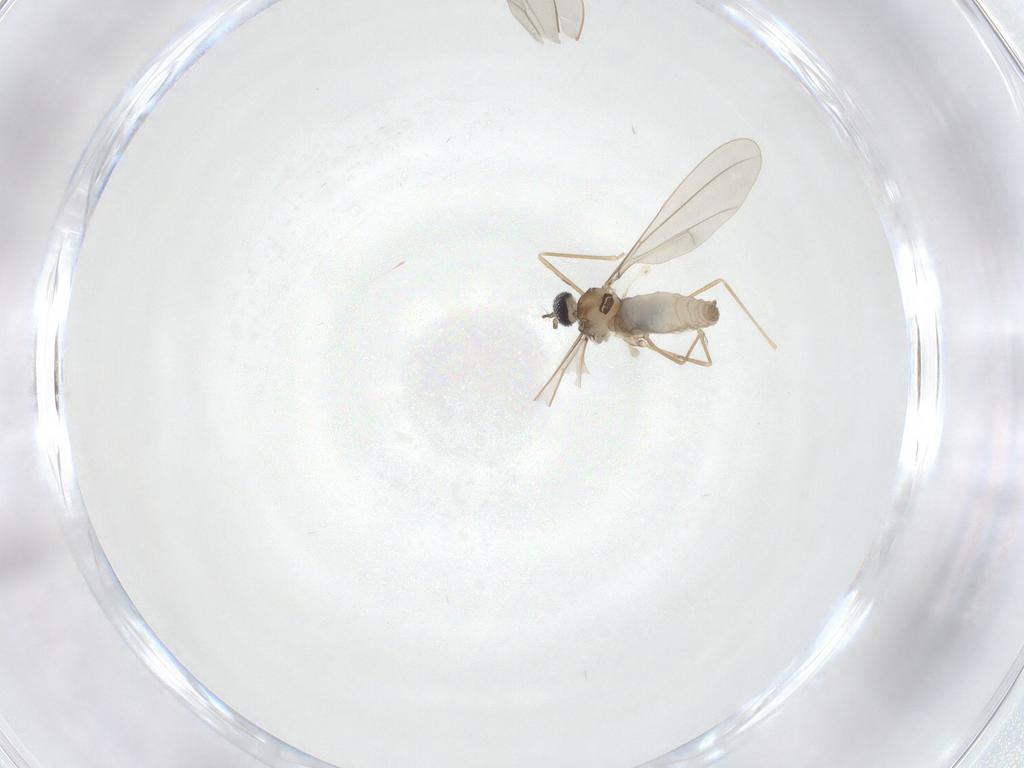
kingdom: Animalia
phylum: Arthropoda
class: Insecta
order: Diptera
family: Cecidomyiidae
